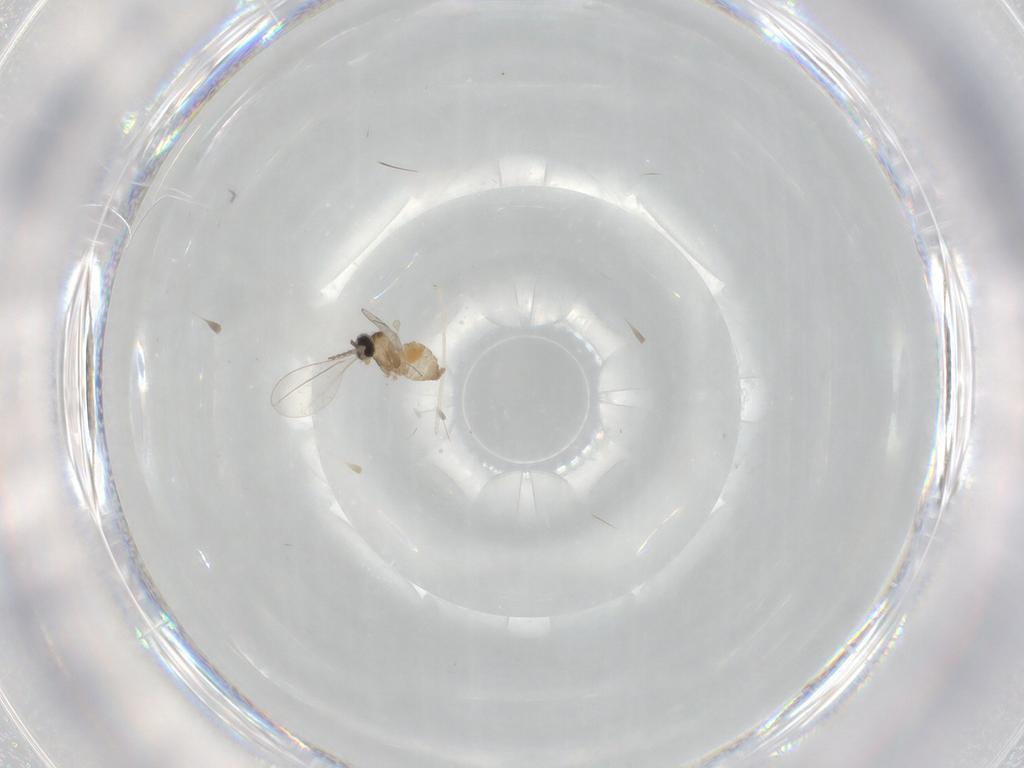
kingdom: Animalia
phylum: Arthropoda
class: Insecta
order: Diptera
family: Cecidomyiidae
